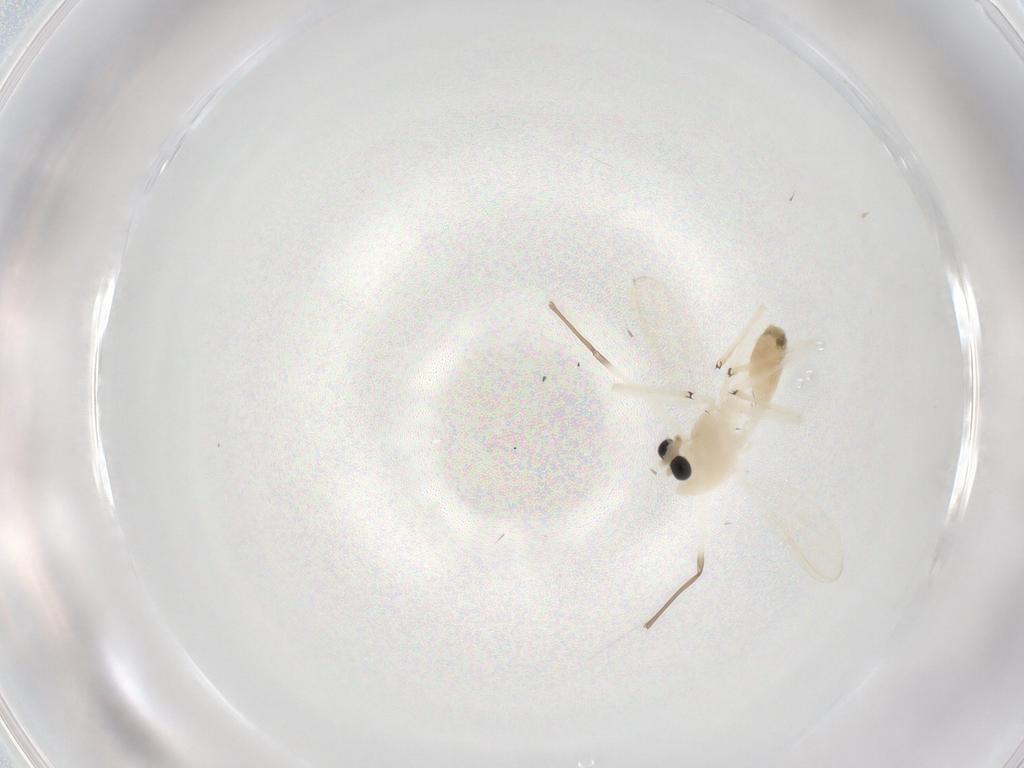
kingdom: Animalia
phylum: Arthropoda
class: Insecta
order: Diptera
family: Chironomidae
